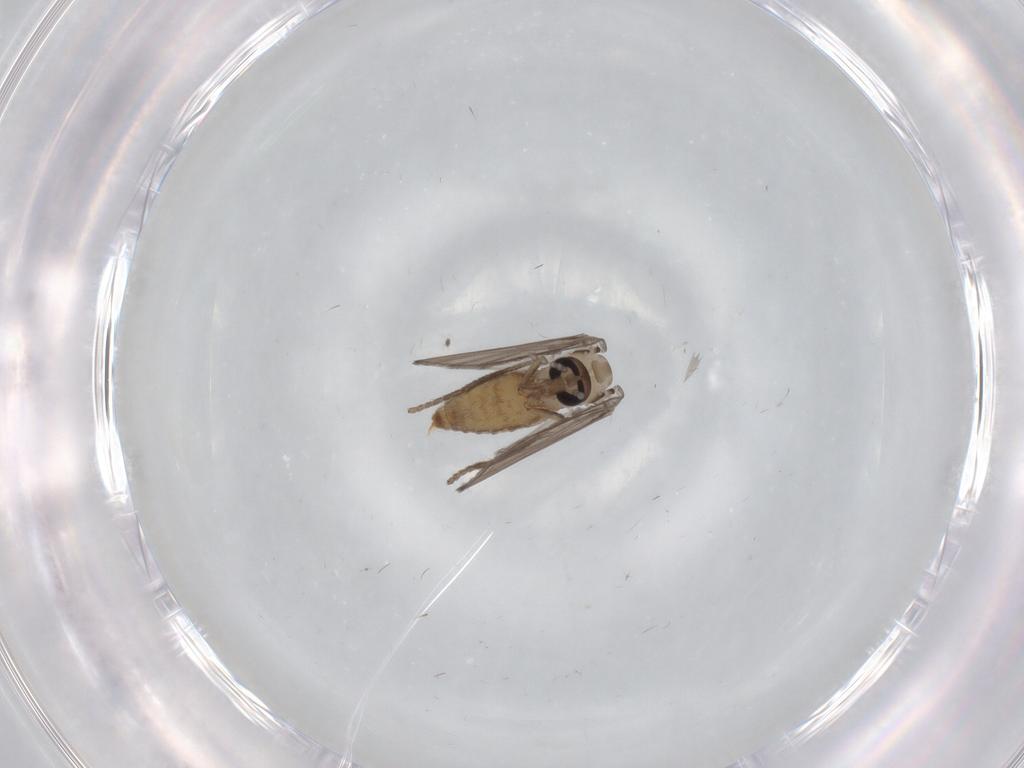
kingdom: Animalia
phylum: Arthropoda
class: Insecta
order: Diptera
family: Psychodidae
